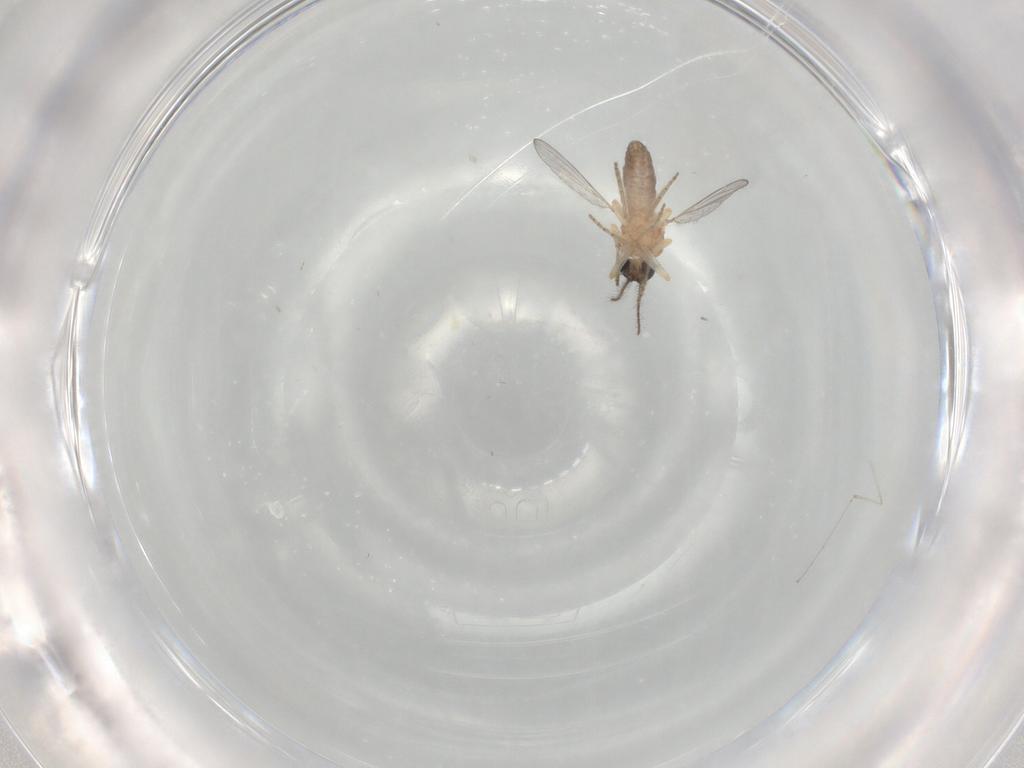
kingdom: Animalia
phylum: Arthropoda
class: Insecta
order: Diptera
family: Cecidomyiidae
